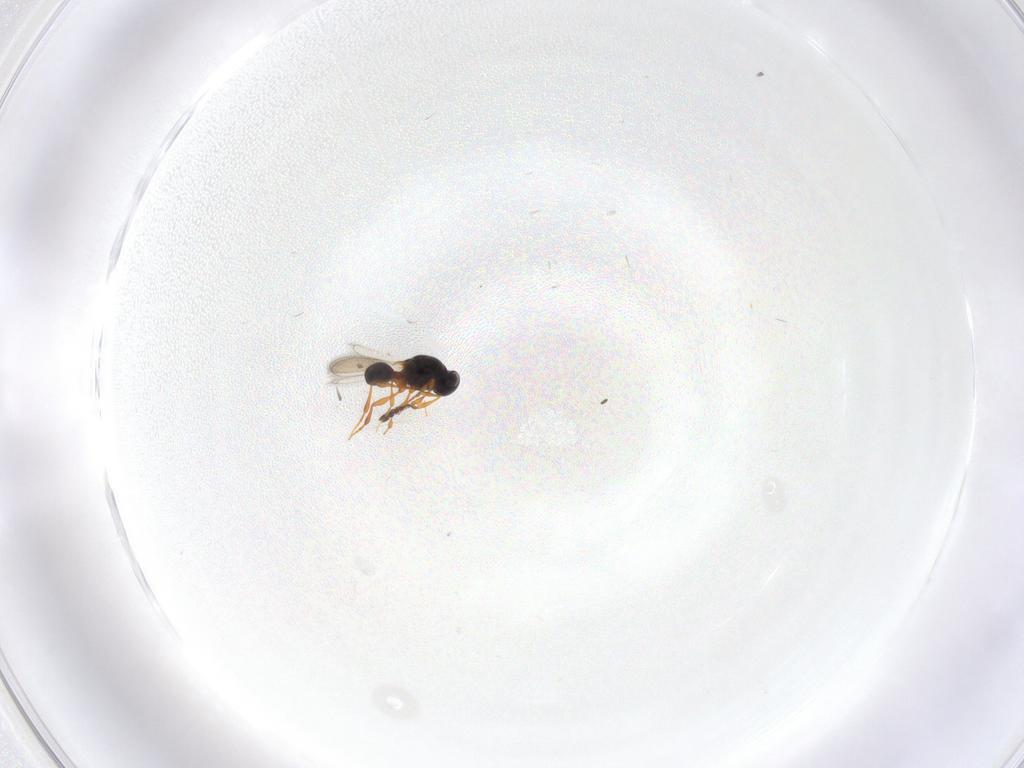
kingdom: Animalia
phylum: Arthropoda
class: Insecta
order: Hymenoptera
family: Platygastridae
